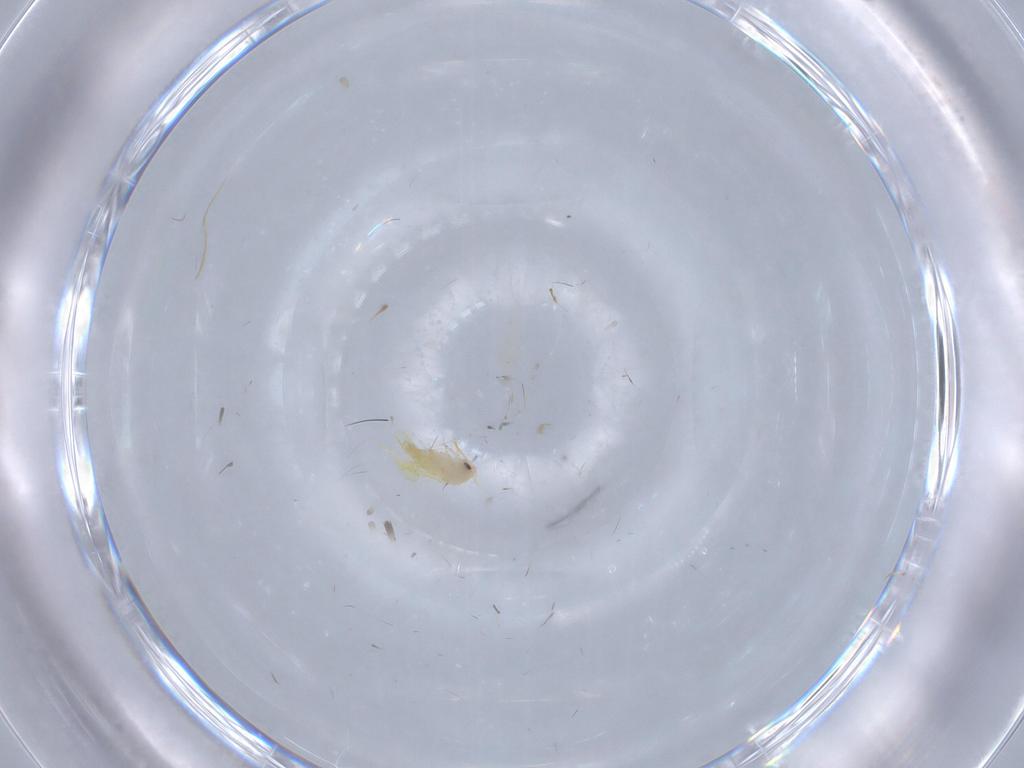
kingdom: Animalia
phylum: Arthropoda
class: Insecta
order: Hemiptera
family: Aleyrodidae
